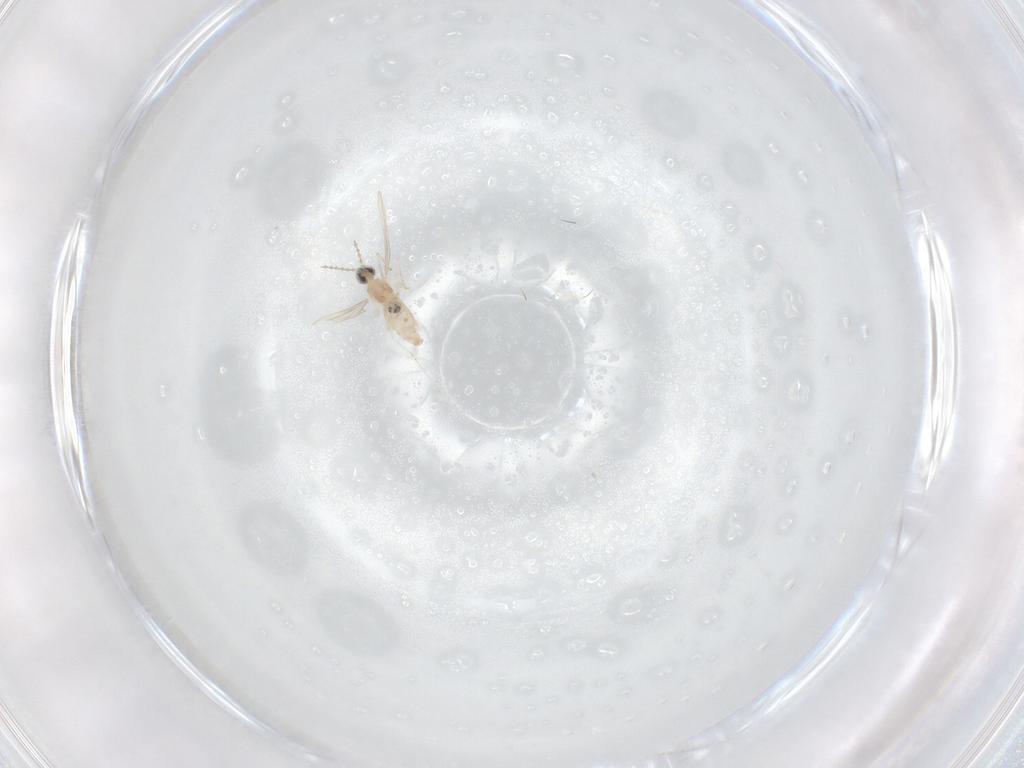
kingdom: Animalia
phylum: Arthropoda
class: Insecta
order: Diptera
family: Cecidomyiidae
